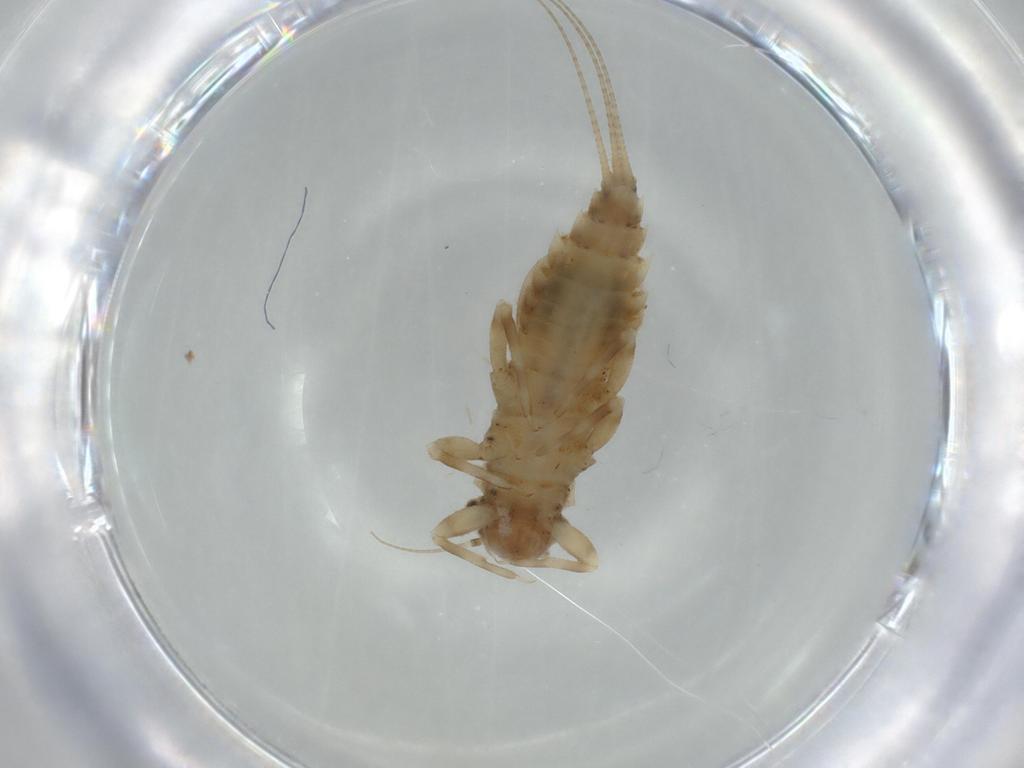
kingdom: Animalia
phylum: Arthropoda
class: Insecta
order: Ephemeroptera
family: Caenidae
